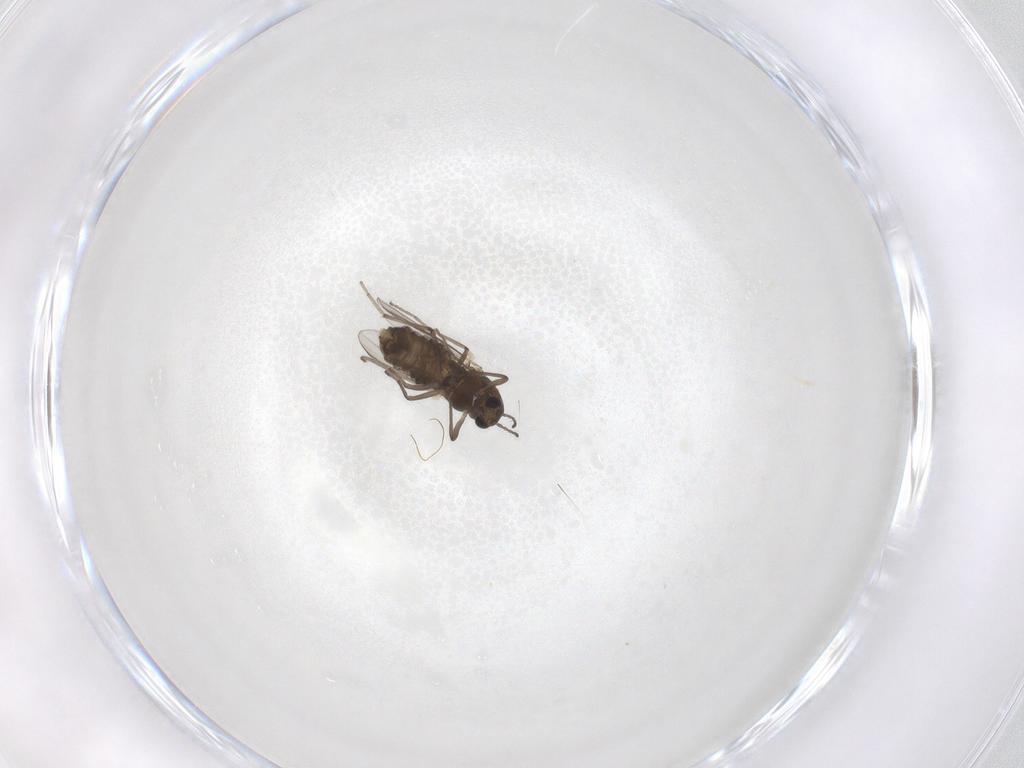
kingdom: Animalia
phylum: Arthropoda
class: Insecta
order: Diptera
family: Chironomidae
